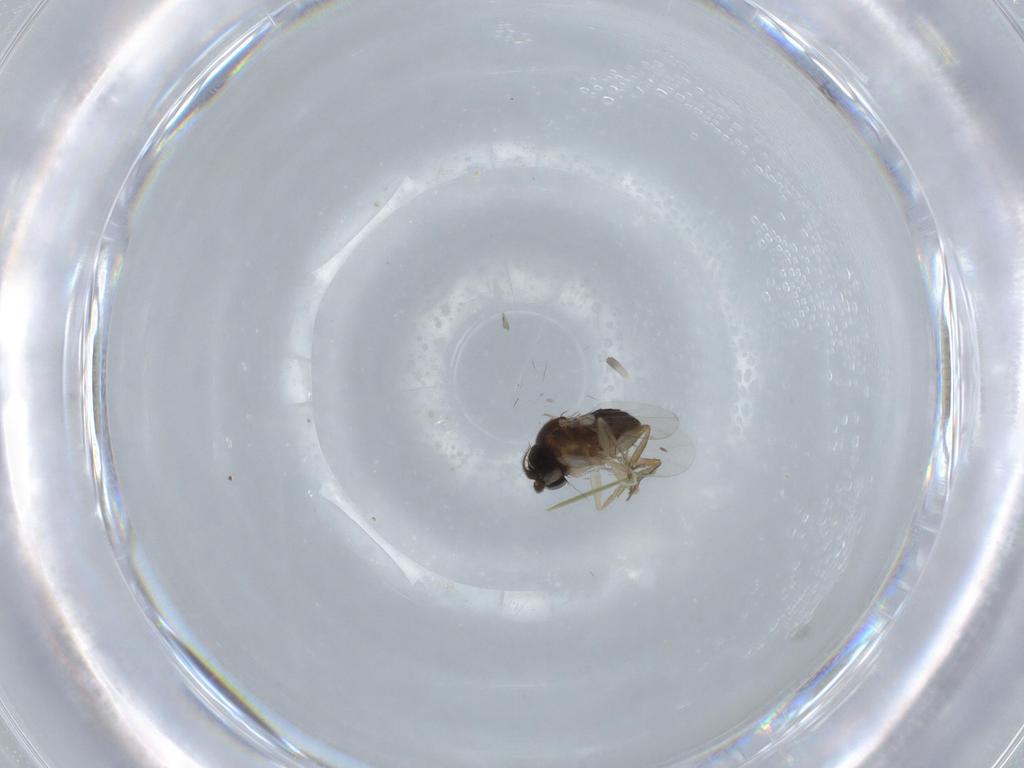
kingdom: Animalia
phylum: Arthropoda
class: Insecta
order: Diptera
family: Phoridae
